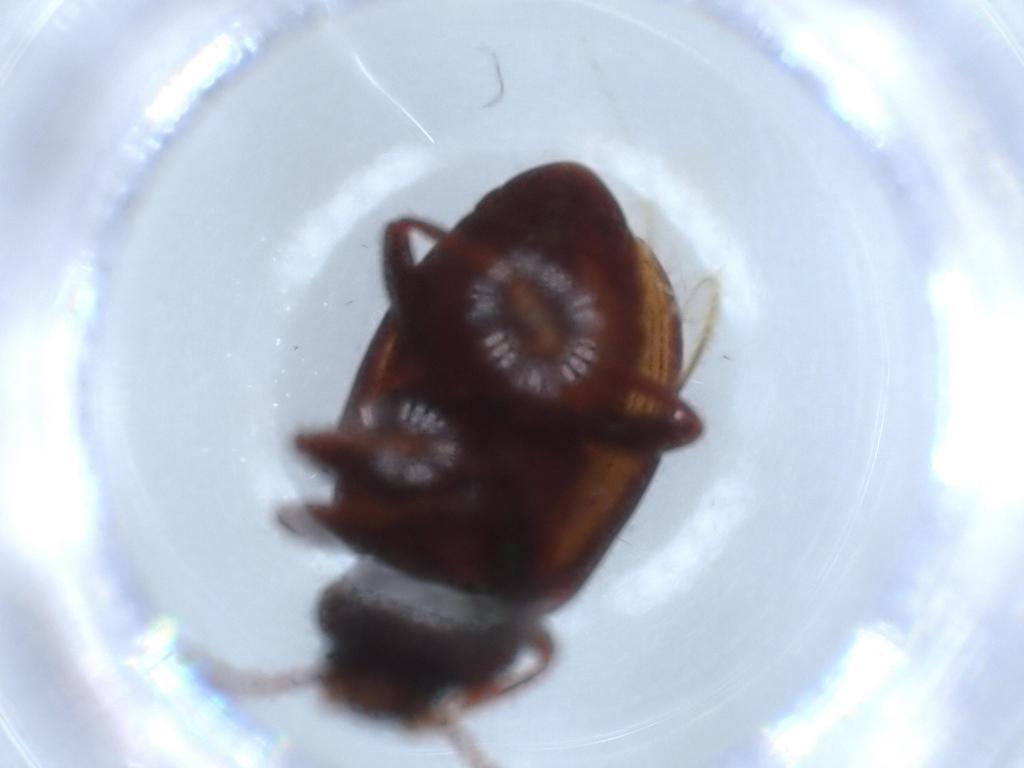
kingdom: Animalia
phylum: Arthropoda
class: Insecta
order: Coleoptera
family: Tenebrionidae
